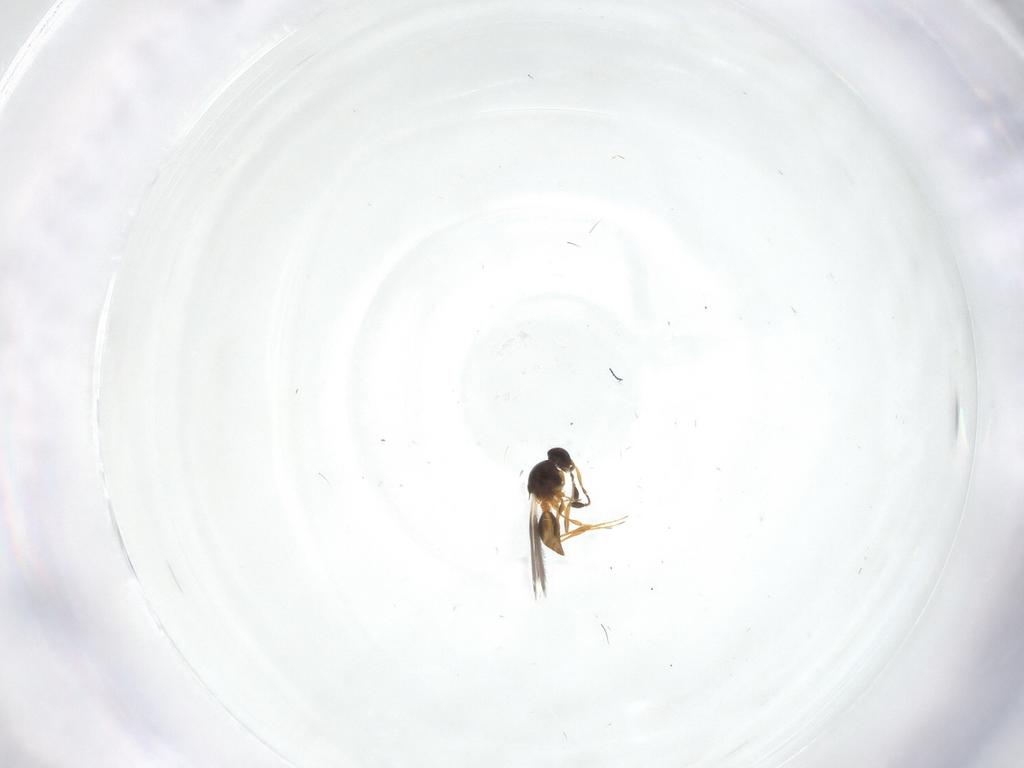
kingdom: Animalia
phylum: Arthropoda
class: Insecta
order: Hymenoptera
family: Platygastridae
